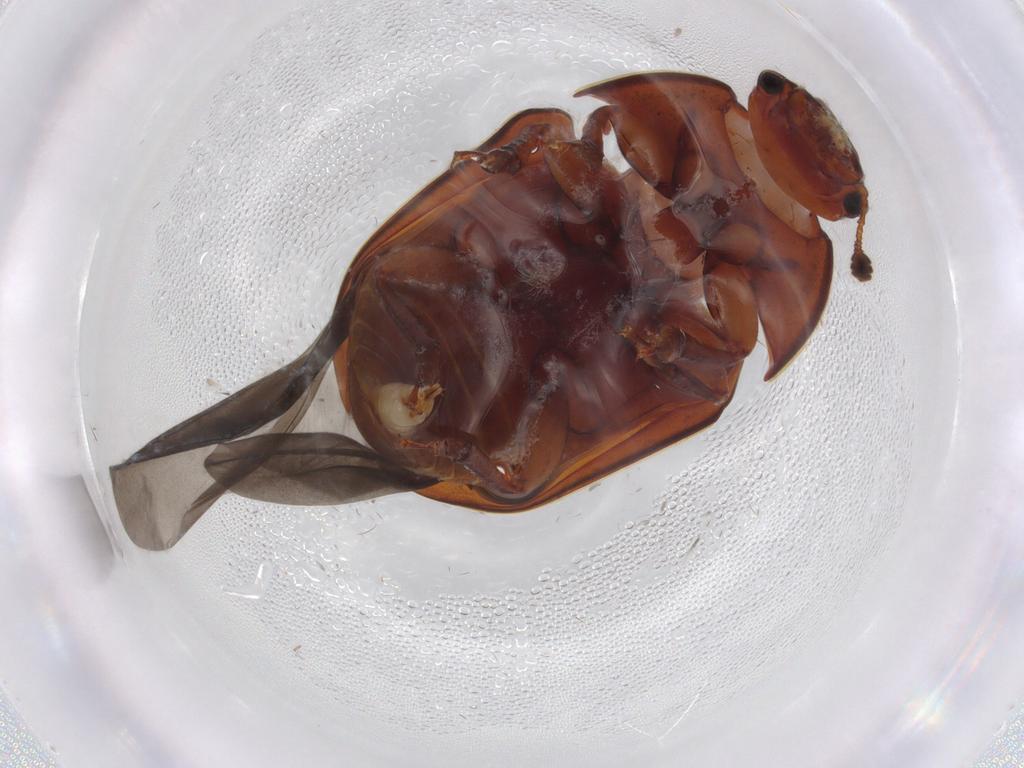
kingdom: Animalia
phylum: Arthropoda
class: Insecta
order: Coleoptera
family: Nitidulidae
